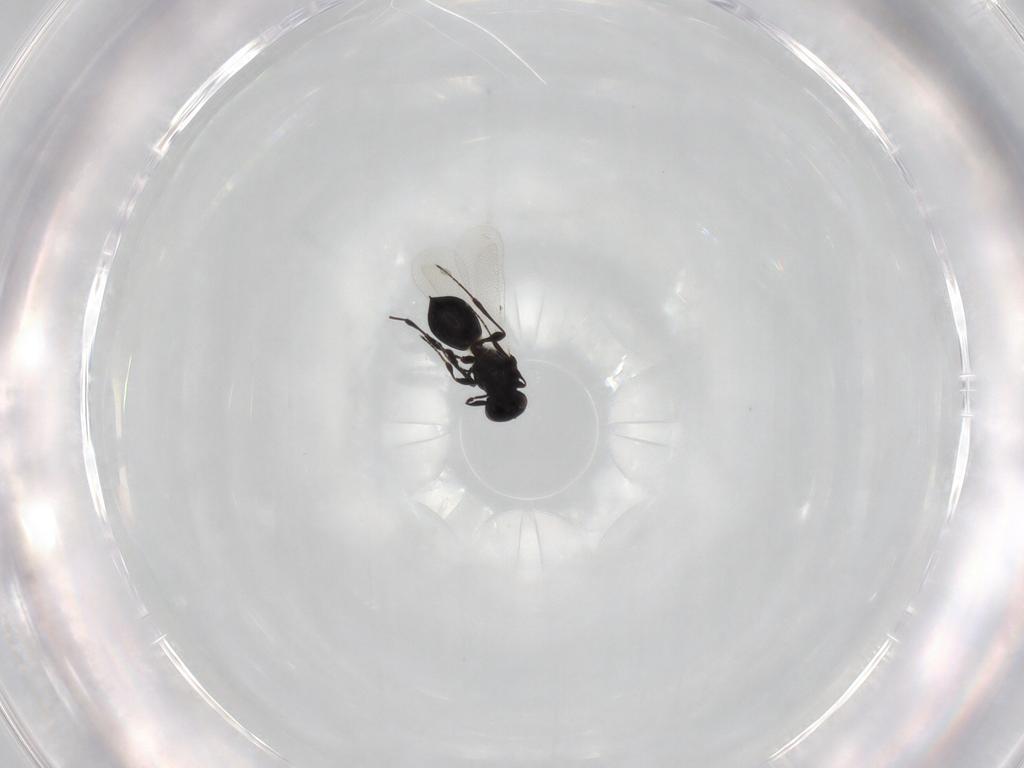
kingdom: Animalia
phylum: Arthropoda
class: Insecta
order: Hymenoptera
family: Platygastridae
